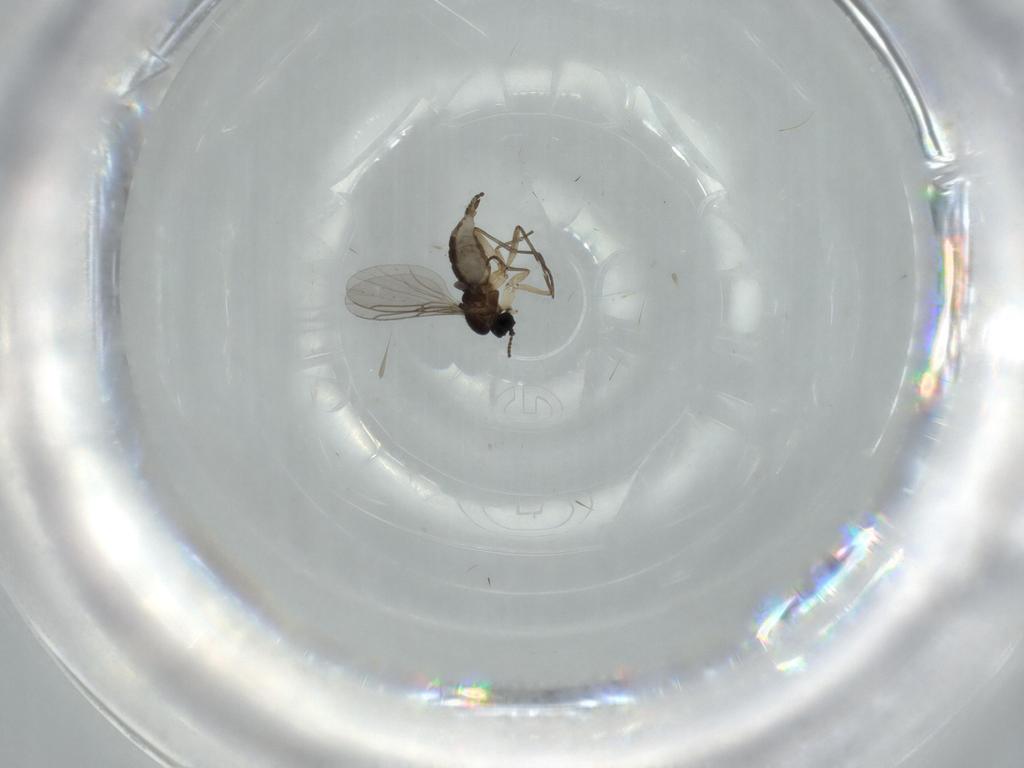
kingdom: Animalia
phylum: Arthropoda
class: Insecta
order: Diptera
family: Sciaridae
